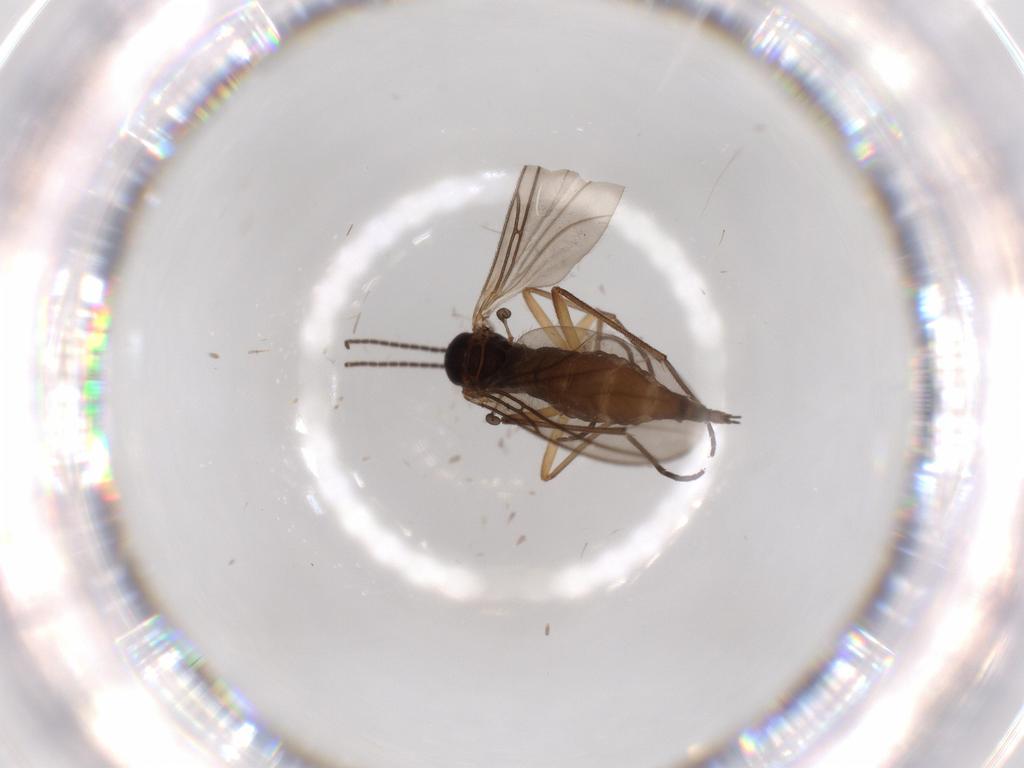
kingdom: Animalia
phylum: Arthropoda
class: Insecta
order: Diptera
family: Sciaridae
